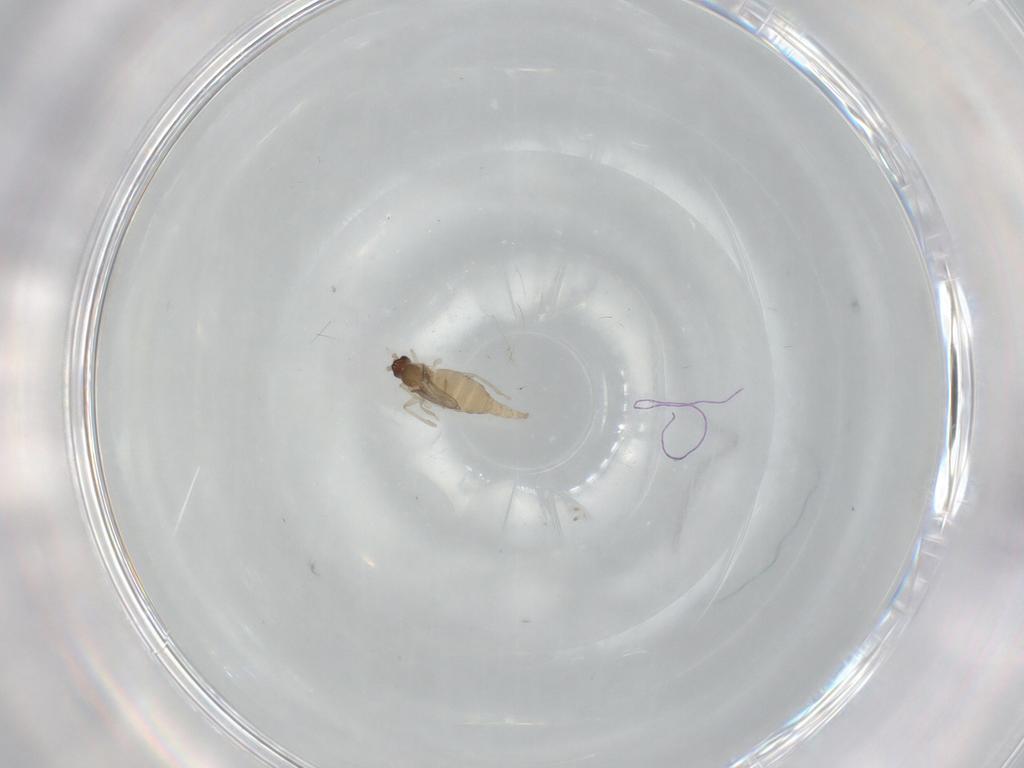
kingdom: Animalia
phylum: Arthropoda
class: Insecta
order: Diptera
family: Cecidomyiidae
